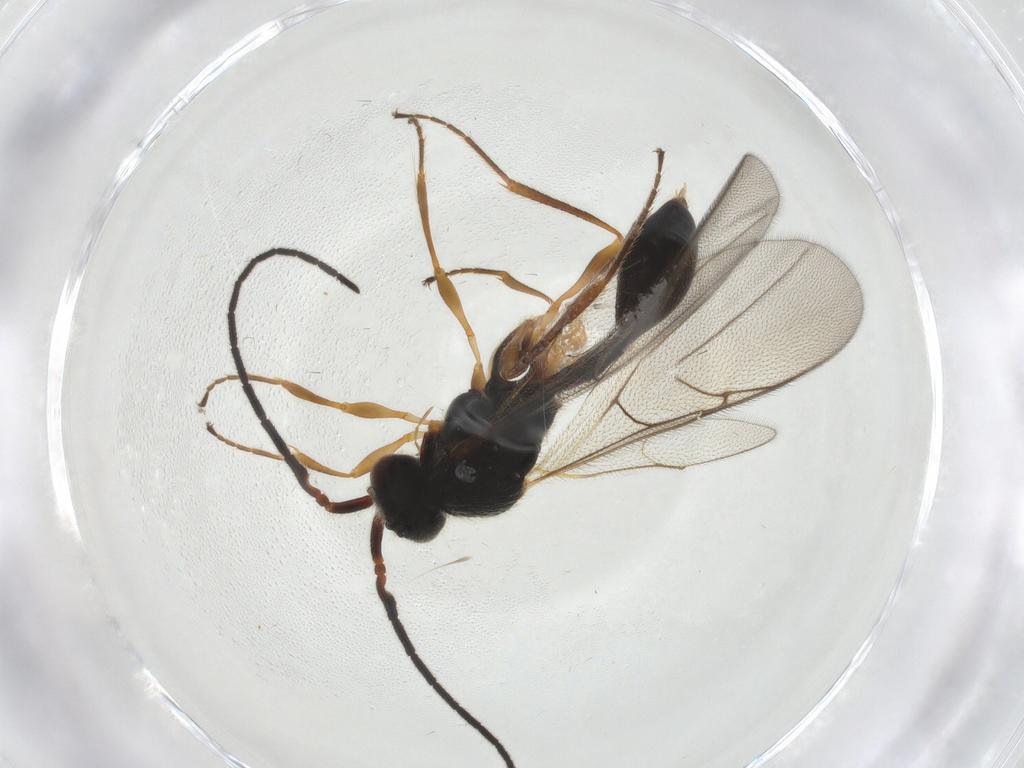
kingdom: Animalia
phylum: Arthropoda
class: Insecta
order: Hymenoptera
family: Diapriidae
